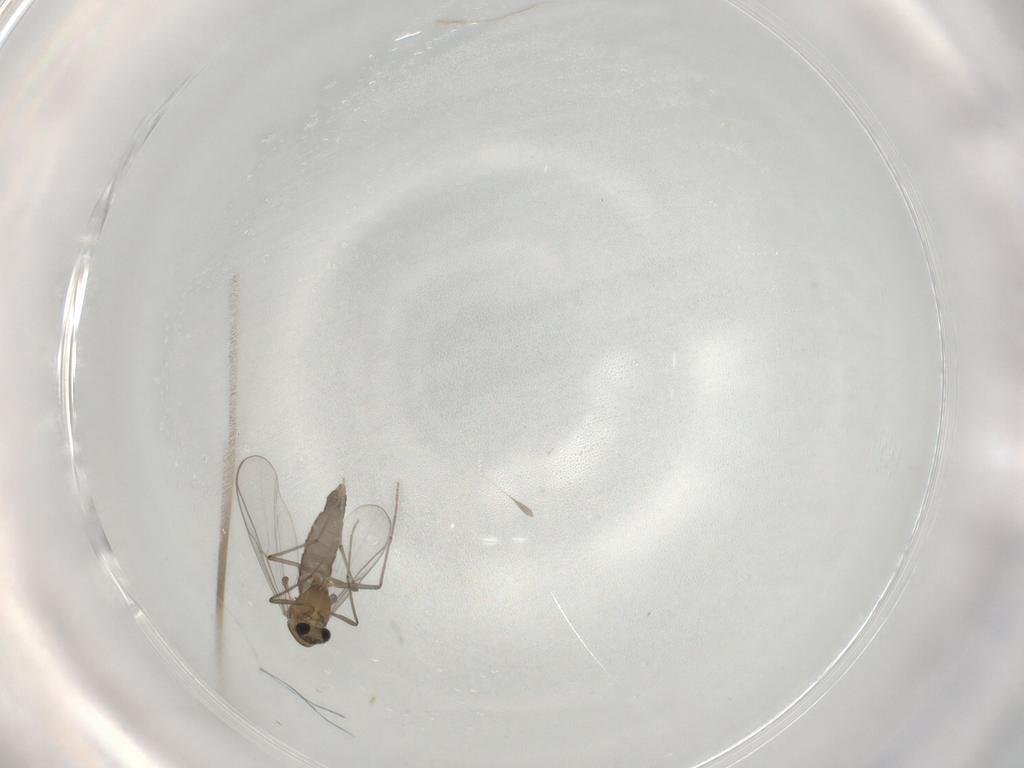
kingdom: Animalia
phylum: Arthropoda
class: Insecta
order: Diptera
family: Chironomidae
